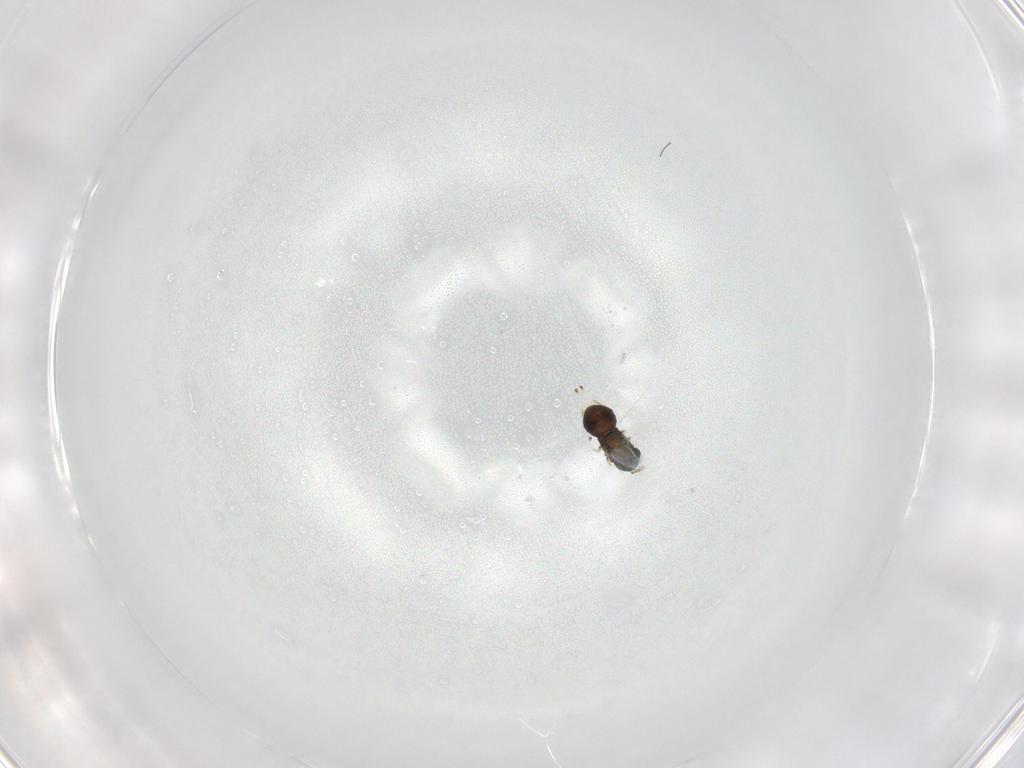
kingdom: Animalia
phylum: Arthropoda
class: Insecta
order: Hymenoptera
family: Eulophidae
